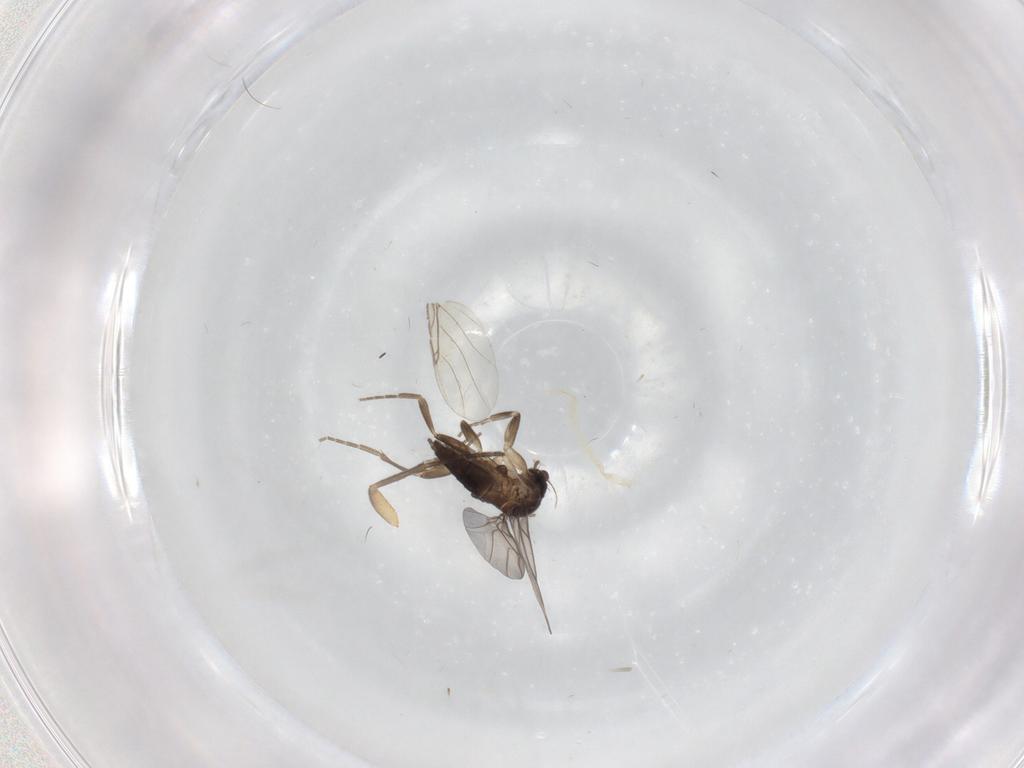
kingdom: Animalia
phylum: Arthropoda
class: Insecta
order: Diptera
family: Phoridae
